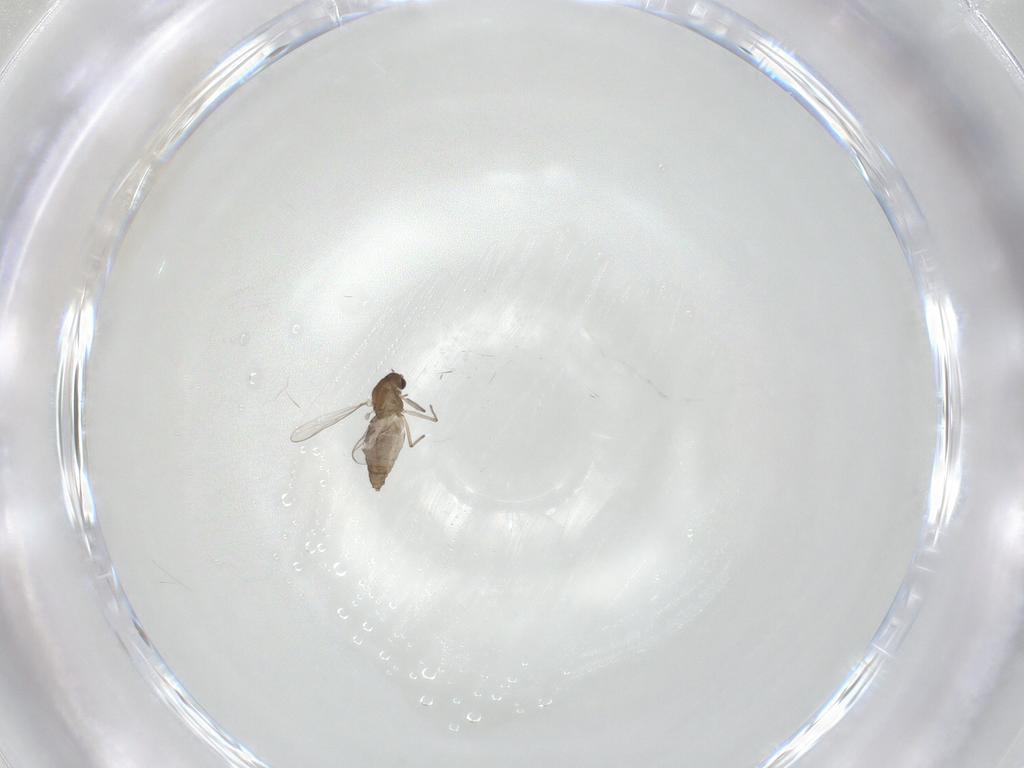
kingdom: Animalia
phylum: Arthropoda
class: Insecta
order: Diptera
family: Chironomidae
